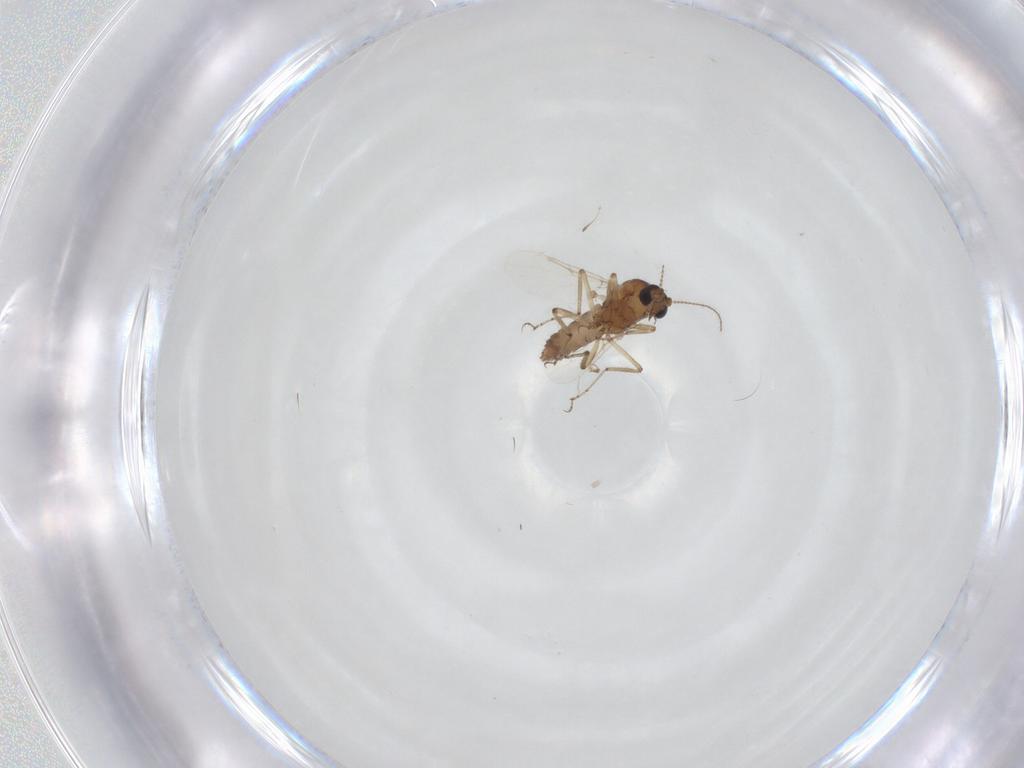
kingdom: Animalia
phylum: Arthropoda
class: Insecta
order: Diptera
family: Ceratopogonidae
